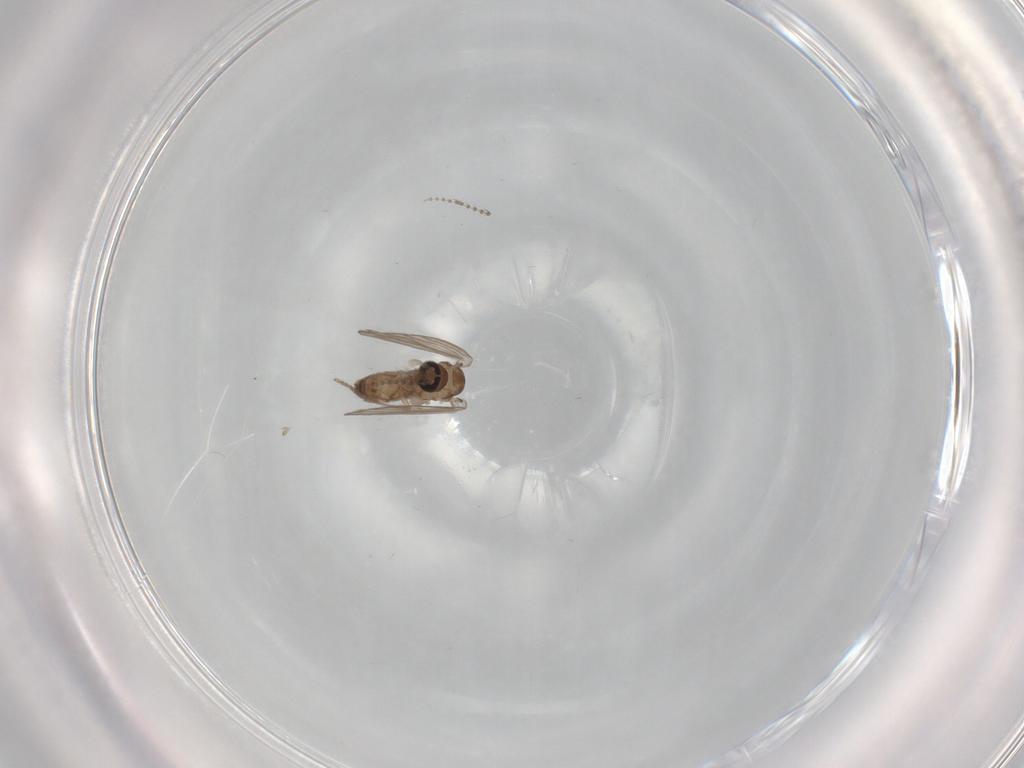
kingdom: Animalia
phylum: Arthropoda
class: Insecta
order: Diptera
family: Psychodidae
